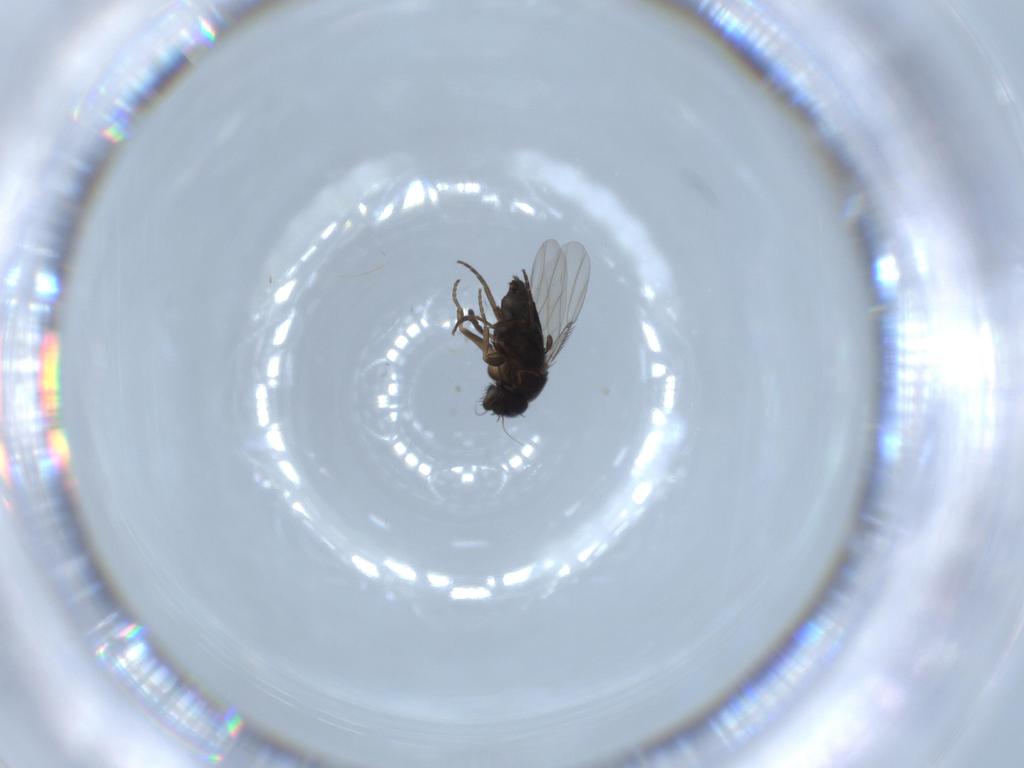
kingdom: Animalia
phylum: Arthropoda
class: Insecta
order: Diptera
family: Phoridae
